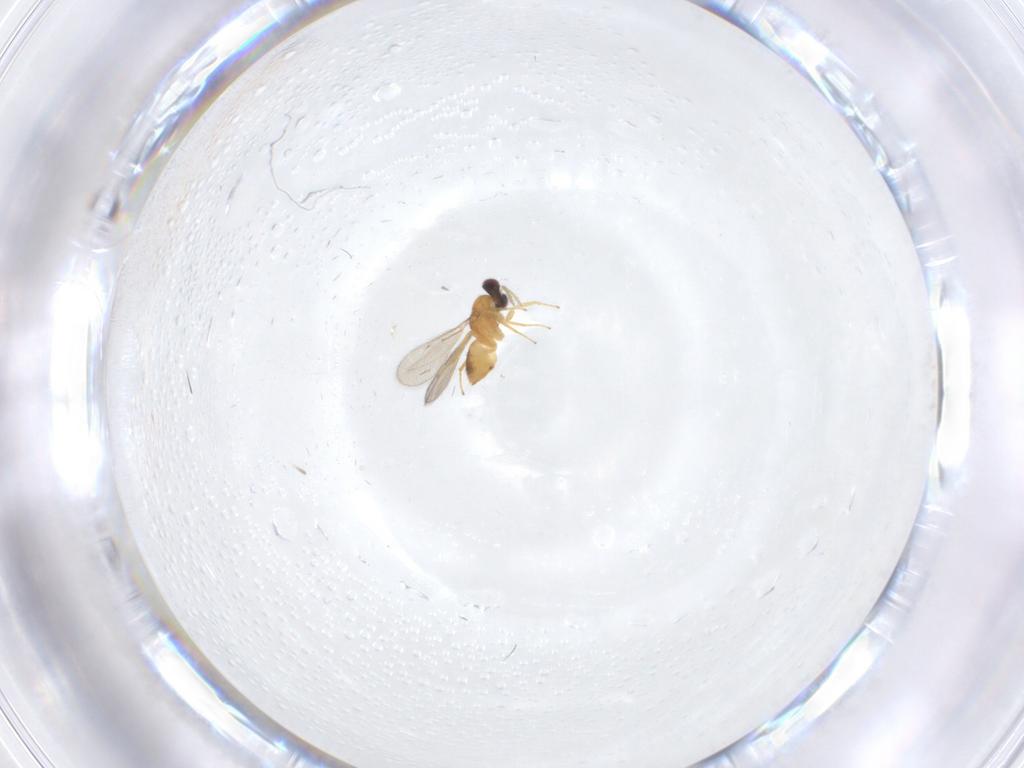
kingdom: Animalia
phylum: Arthropoda
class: Insecta
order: Hymenoptera
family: Eulophidae
